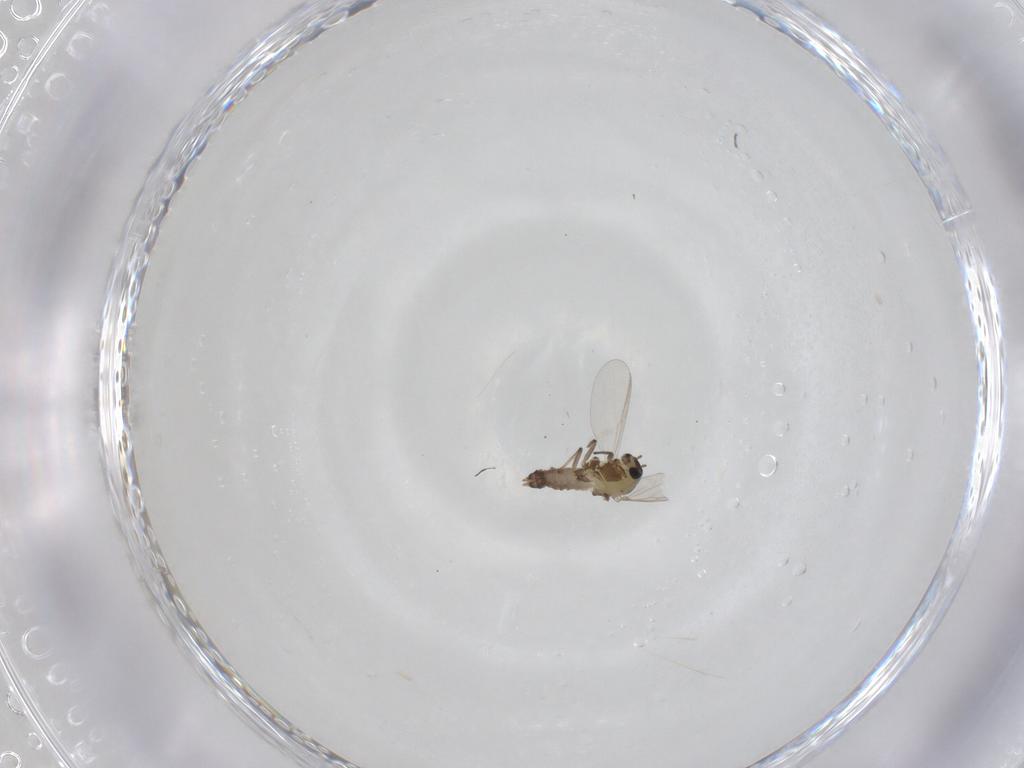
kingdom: Animalia
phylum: Arthropoda
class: Insecta
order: Diptera
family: Chironomidae
